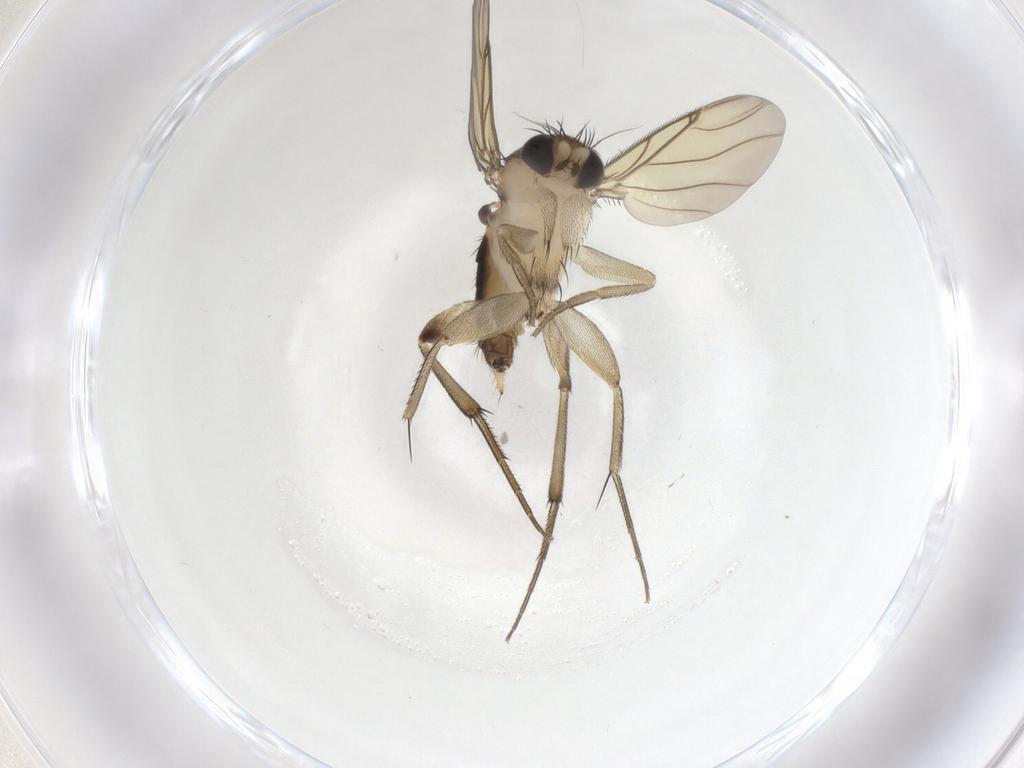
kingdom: Animalia
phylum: Arthropoda
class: Insecta
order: Diptera
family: Phoridae
